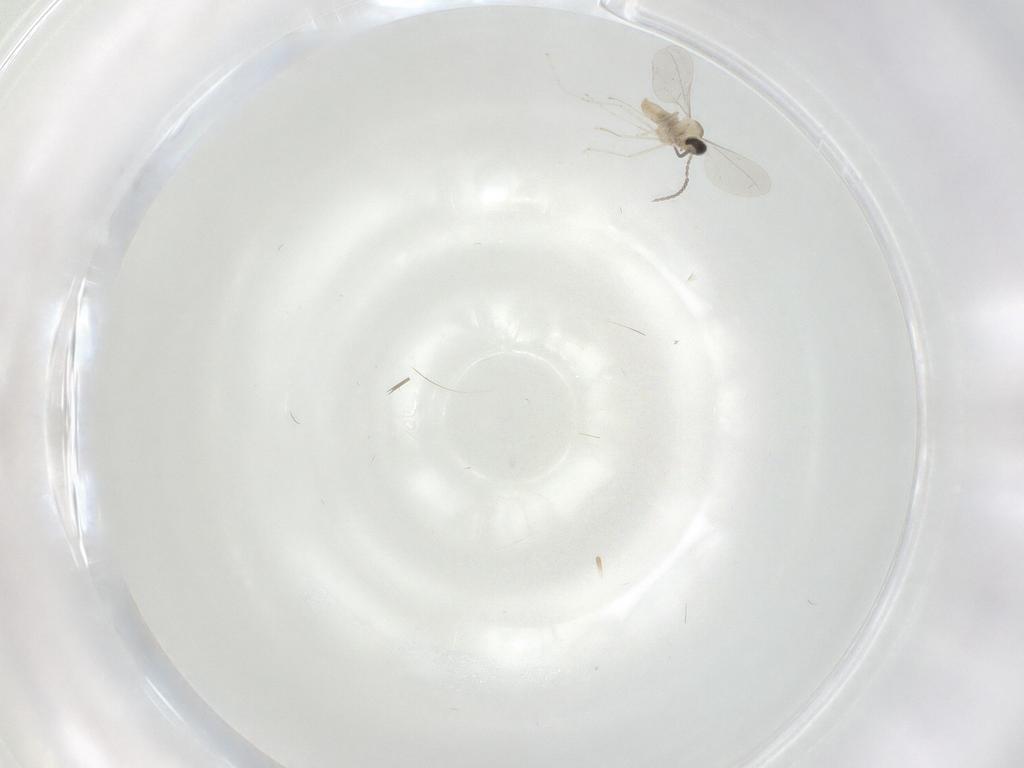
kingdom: Animalia
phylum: Arthropoda
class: Insecta
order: Diptera
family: Cecidomyiidae
